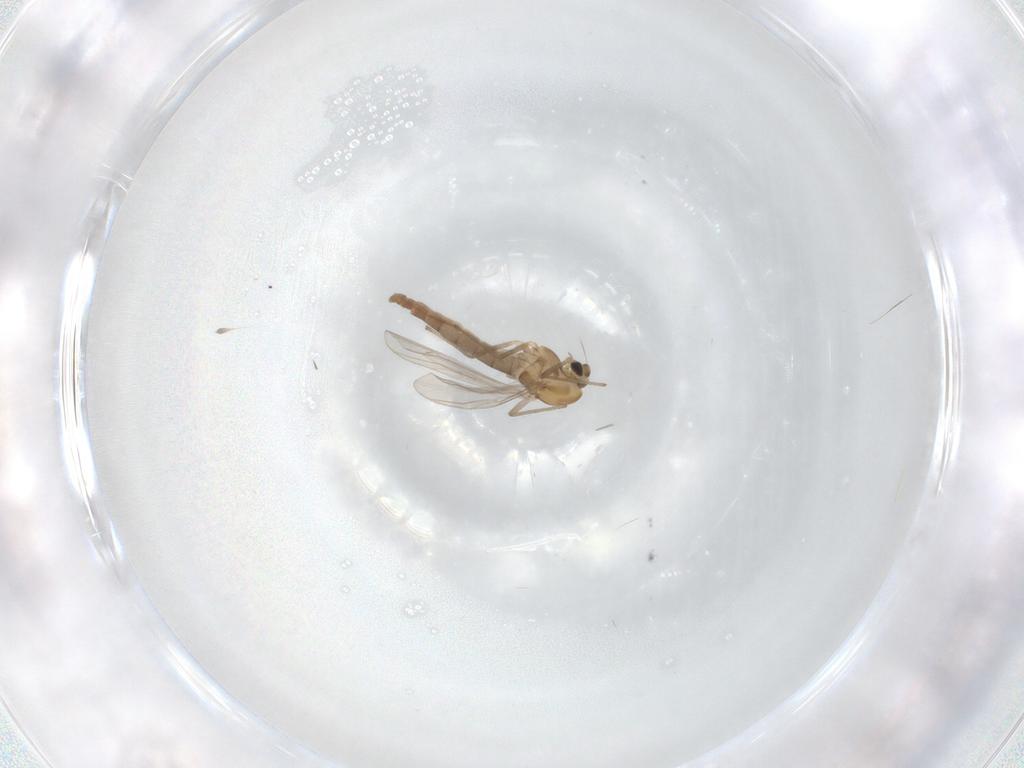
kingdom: Animalia
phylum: Arthropoda
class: Insecta
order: Diptera
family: Chironomidae
